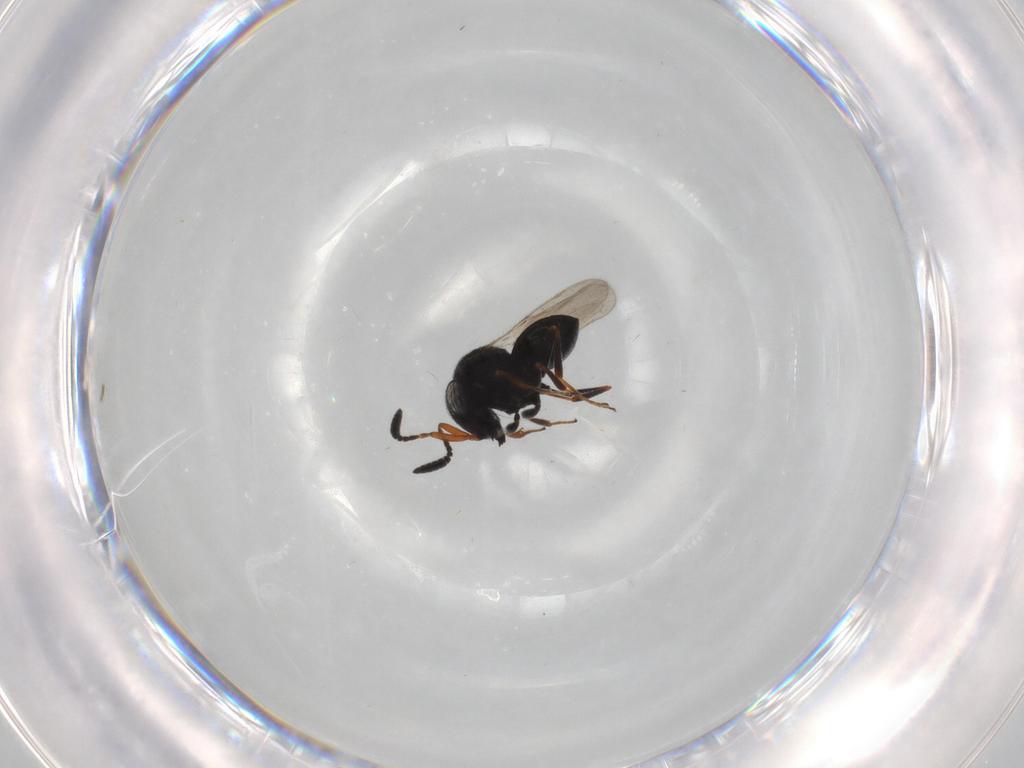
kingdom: Animalia
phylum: Arthropoda
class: Insecta
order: Hymenoptera
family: Scelionidae
